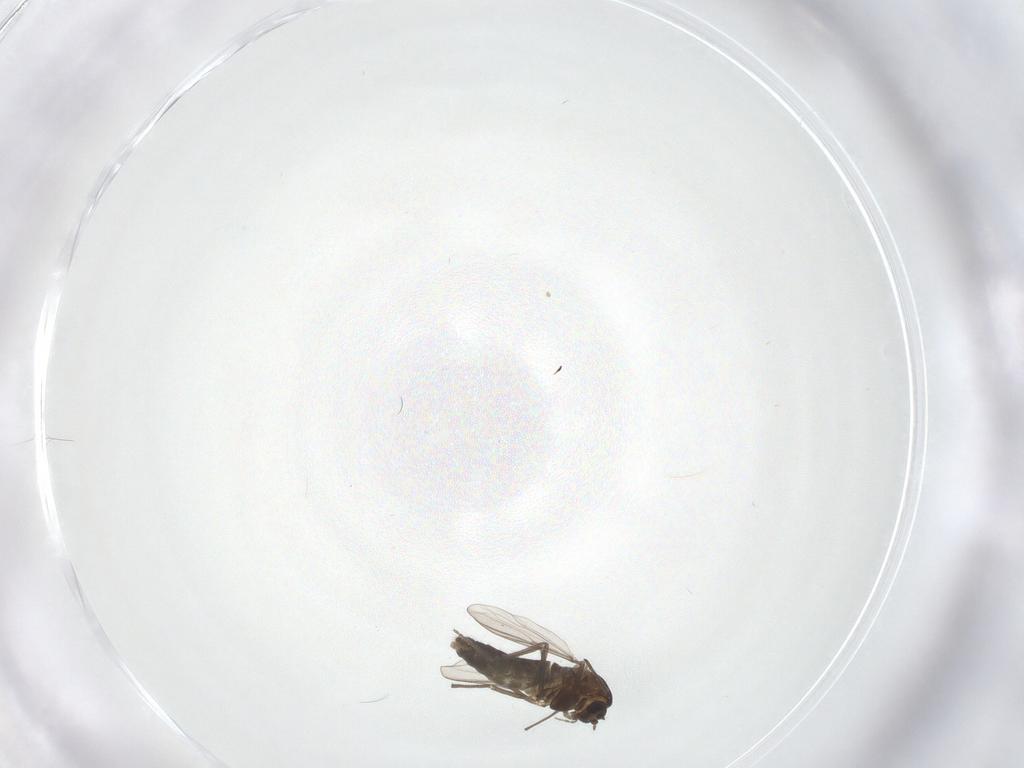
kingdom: Animalia
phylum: Arthropoda
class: Insecta
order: Diptera
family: Chironomidae
